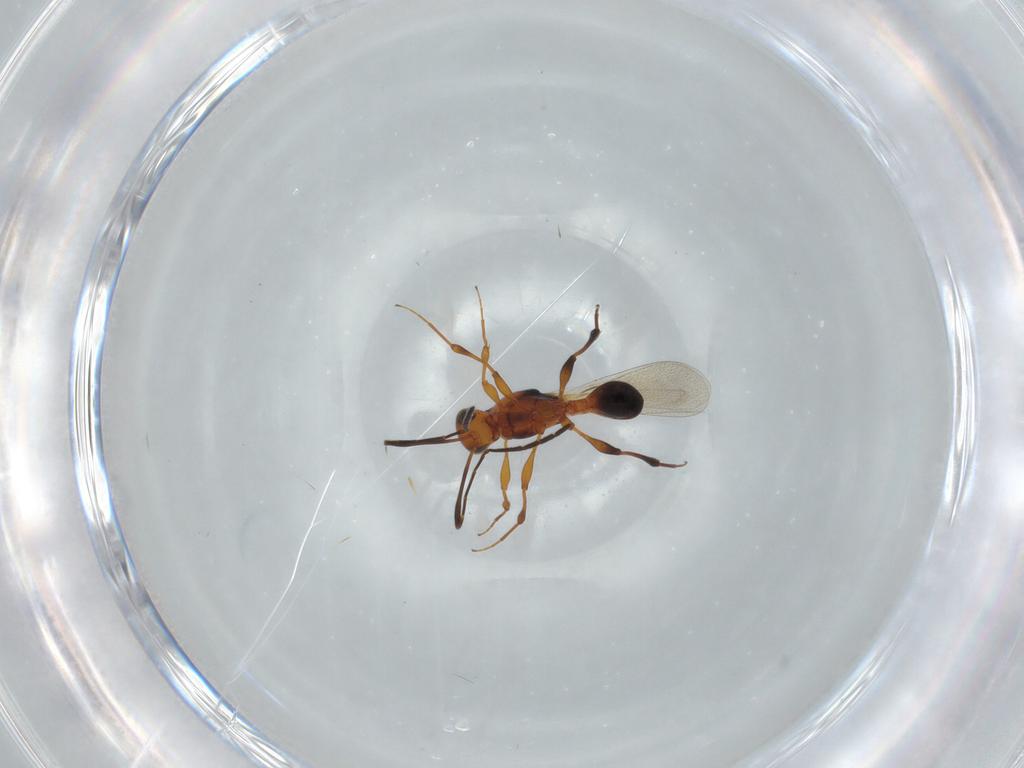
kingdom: Animalia
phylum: Arthropoda
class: Insecta
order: Hymenoptera
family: Platygastridae
